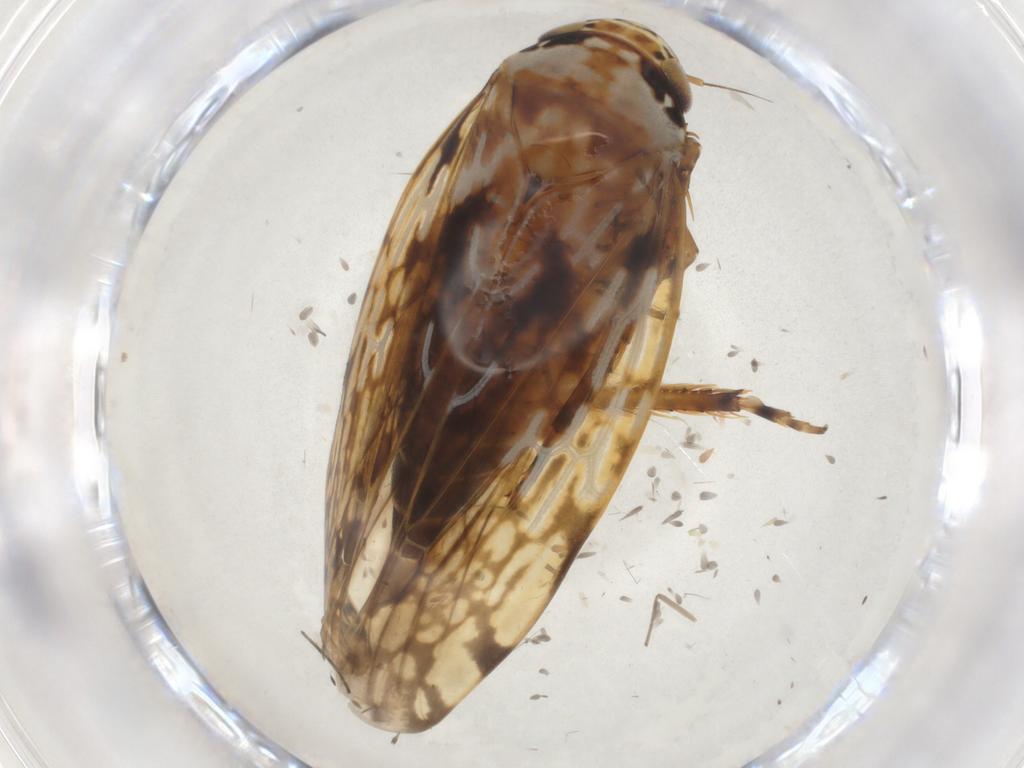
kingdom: Animalia
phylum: Arthropoda
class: Insecta
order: Hemiptera
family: Cicadellidae
